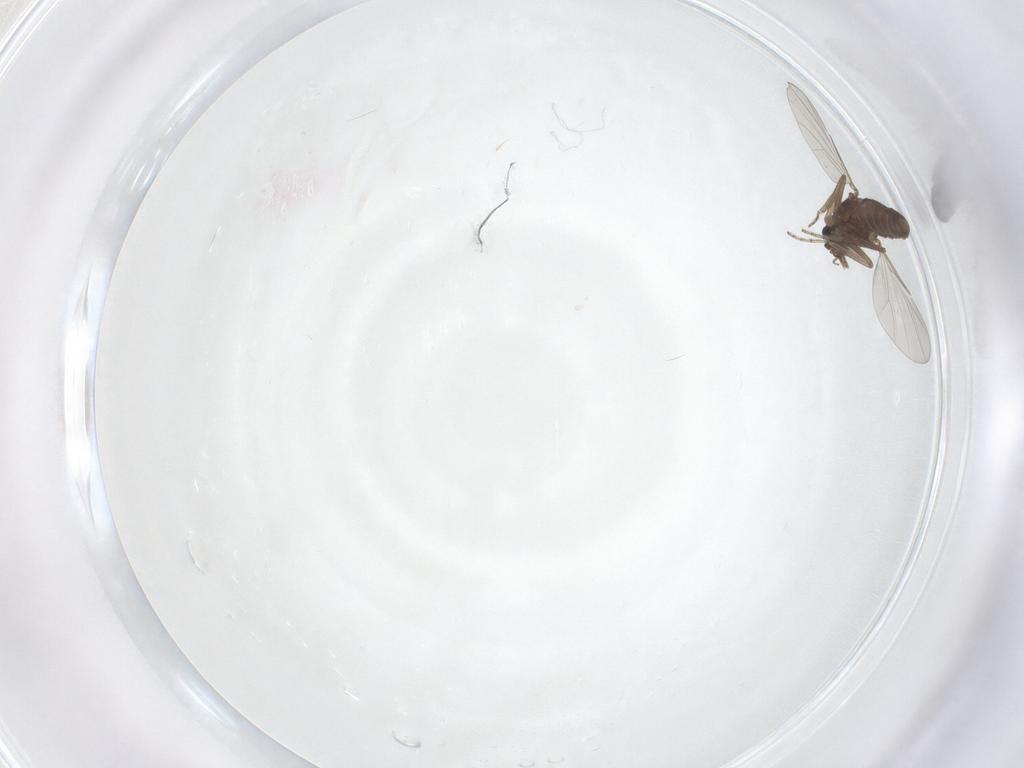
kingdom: Animalia
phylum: Arthropoda
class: Insecta
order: Diptera
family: Ceratopogonidae
